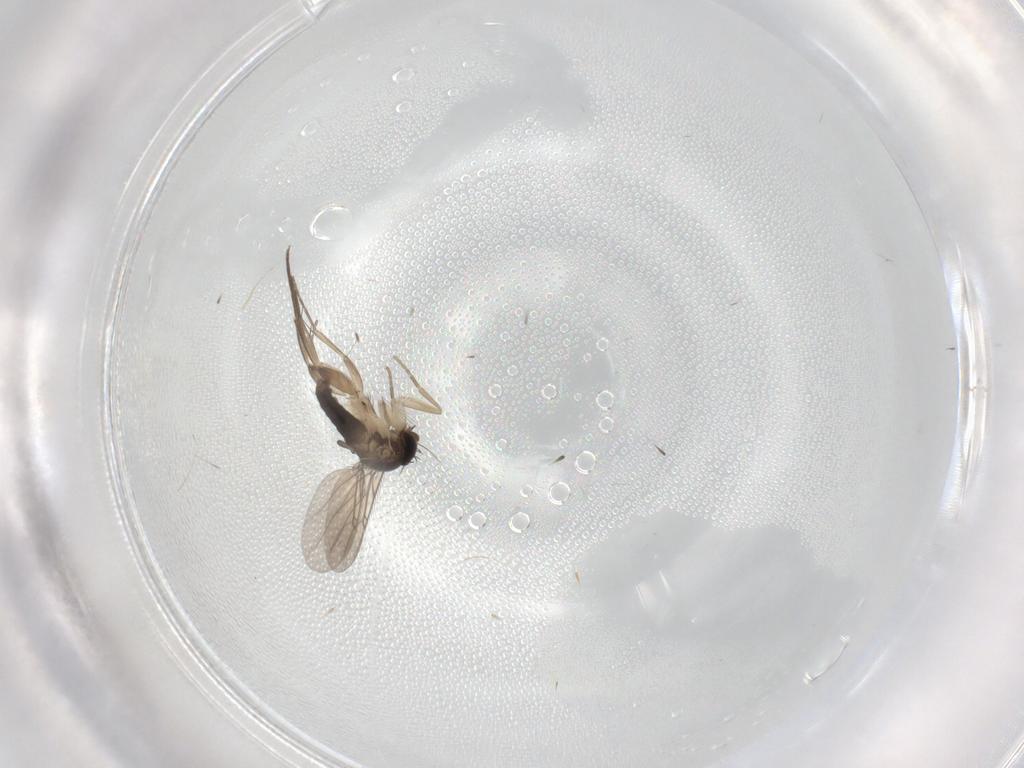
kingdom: Animalia
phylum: Arthropoda
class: Insecta
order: Diptera
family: Phoridae
